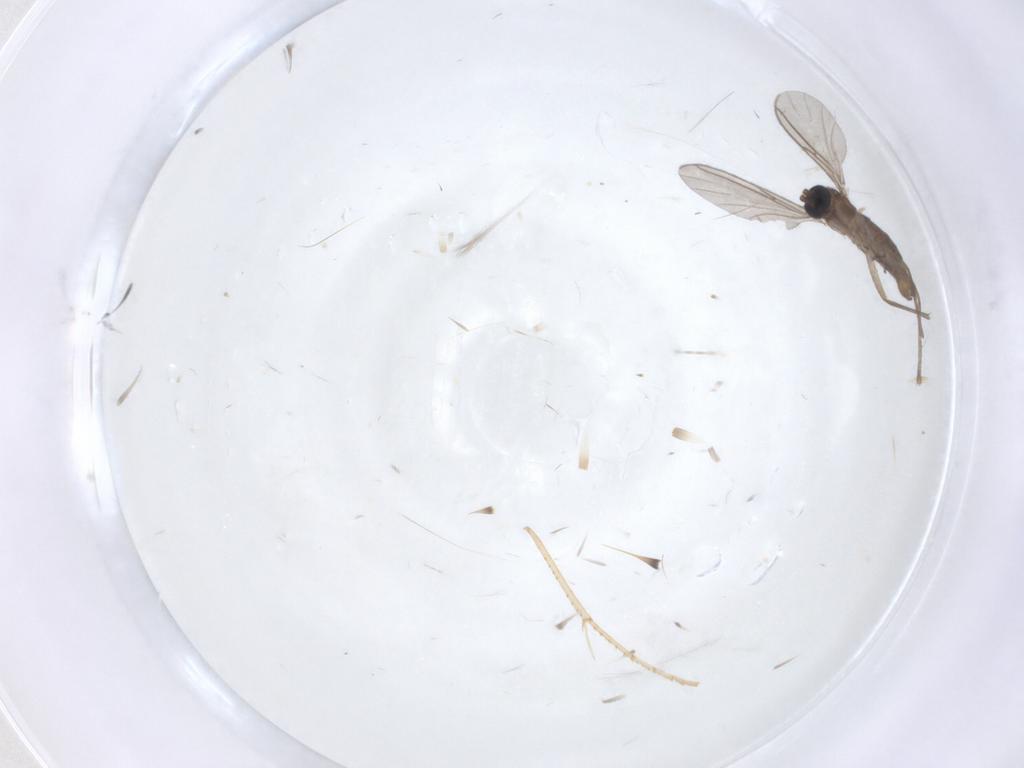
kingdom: Animalia
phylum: Arthropoda
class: Insecta
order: Diptera
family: Sciaridae
